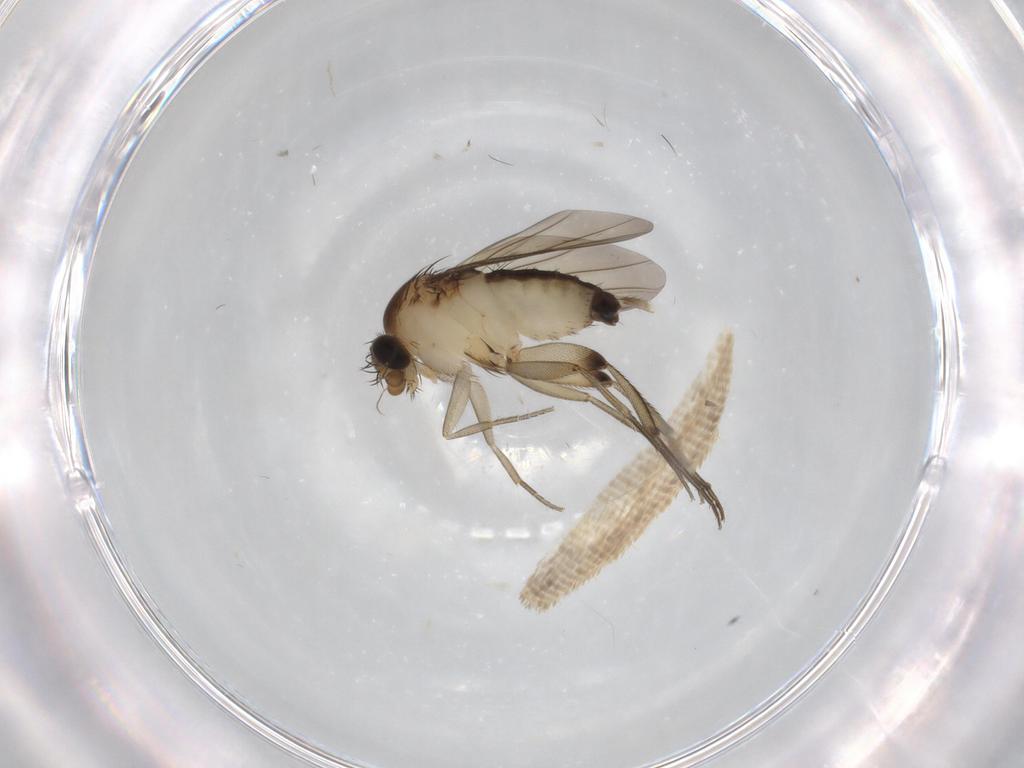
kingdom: Animalia
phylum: Arthropoda
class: Insecta
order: Diptera
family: Phoridae
